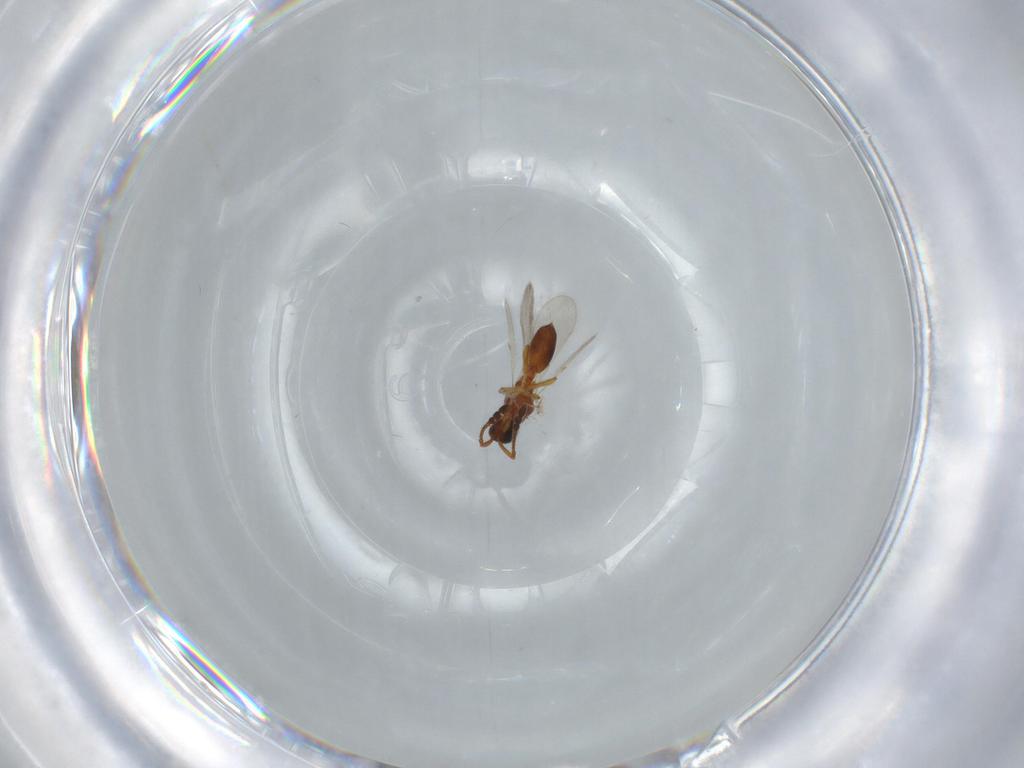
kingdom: Animalia
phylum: Arthropoda
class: Insecta
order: Hymenoptera
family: Diapriidae
